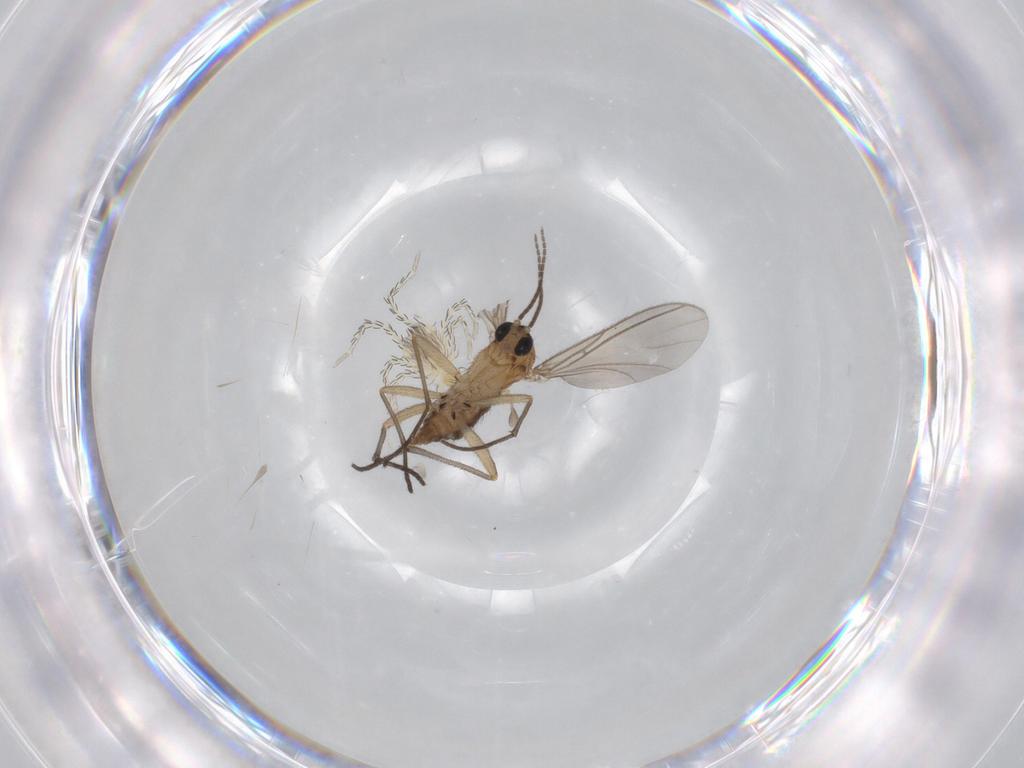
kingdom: Animalia
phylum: Arthropoda
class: Insecta
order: Diptera
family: Sciaridae
